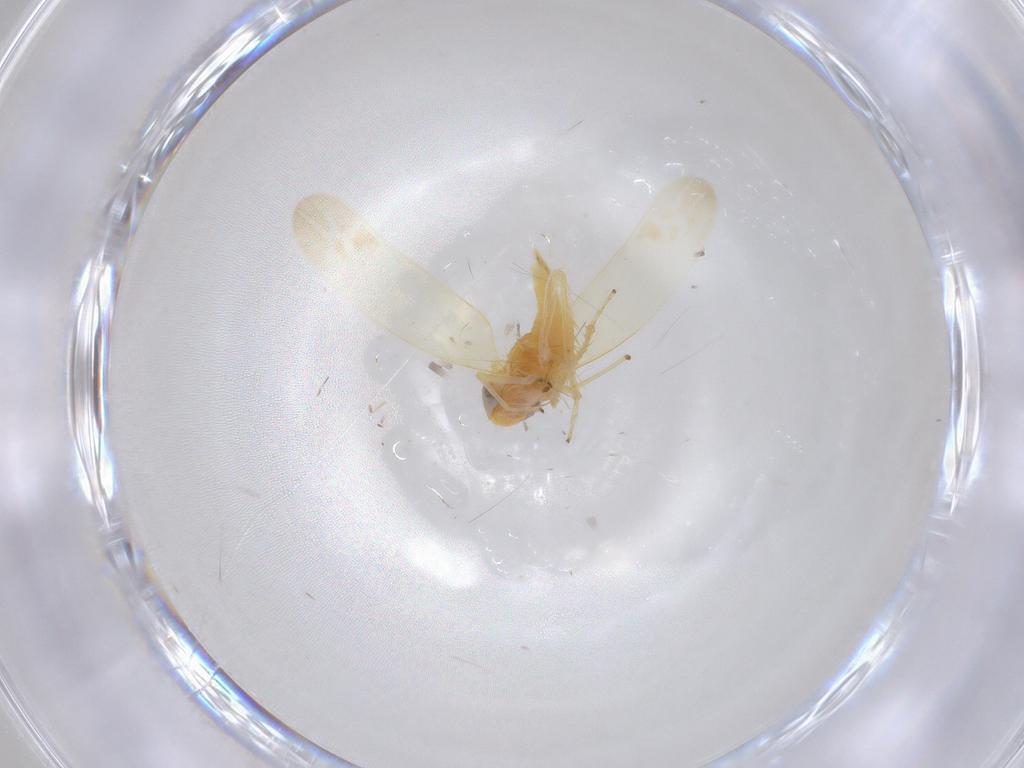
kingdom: Animalia
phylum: Arthropoda
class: Insecta
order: Hemiptera
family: Cicadellidae
